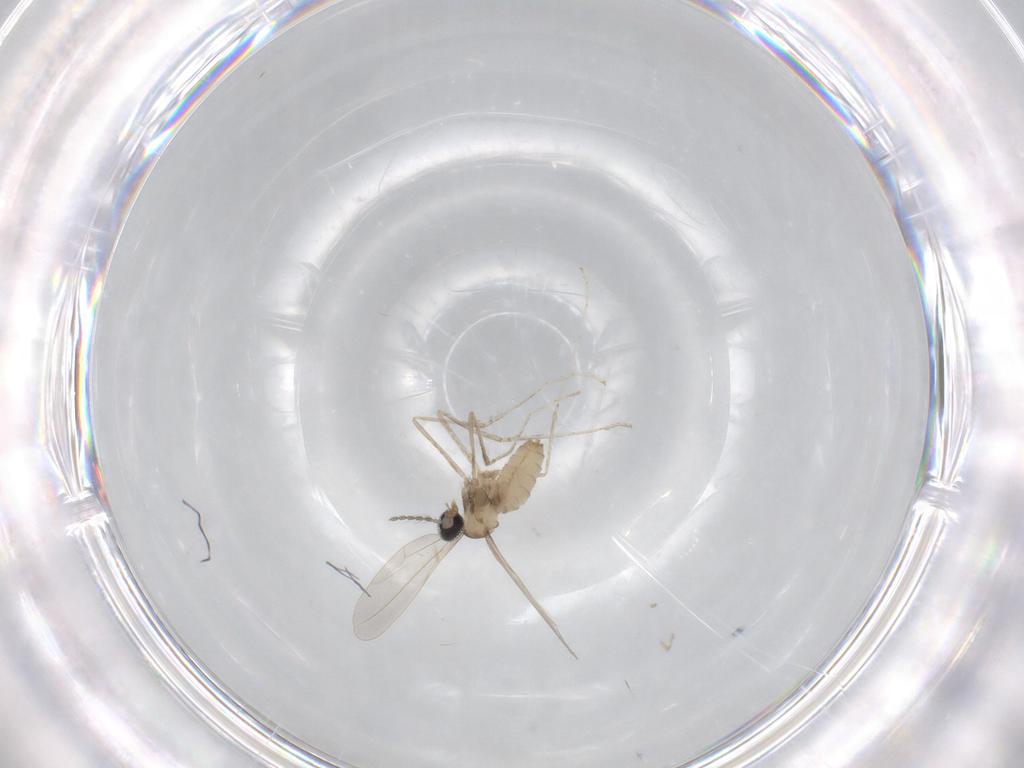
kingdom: Animalia
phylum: Arthropoda
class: Insecta
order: Diptera
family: Cecidomyiidae
